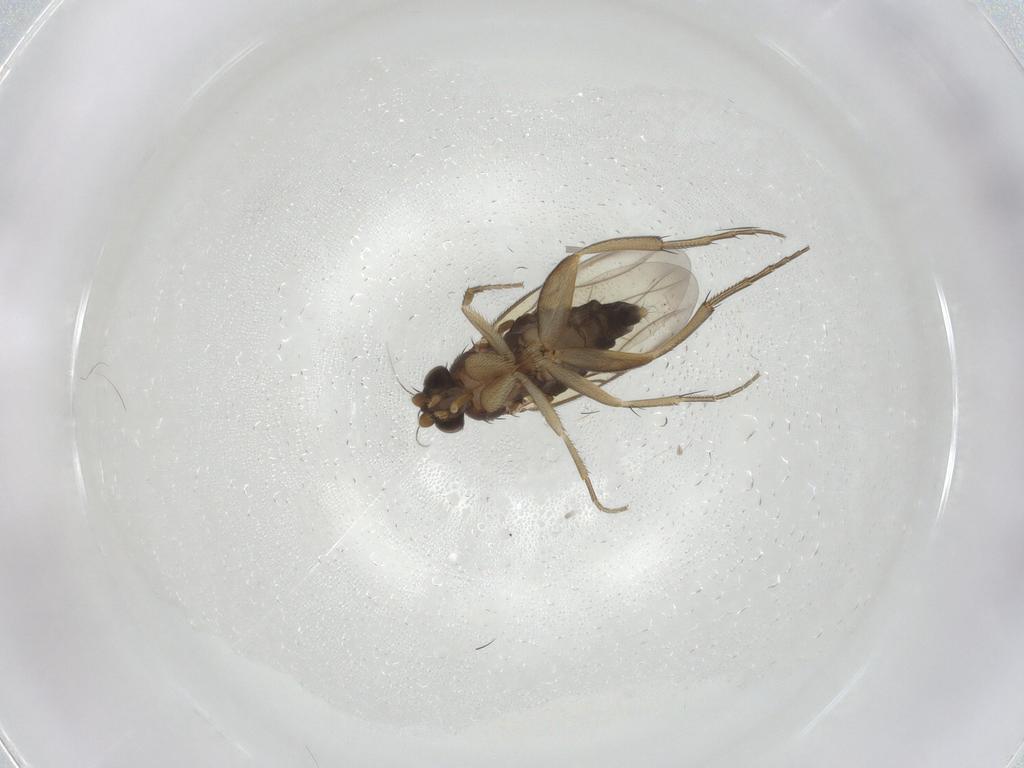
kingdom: Animalia
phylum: Arthropoda
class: Insecta
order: Diptera
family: Phoridae
